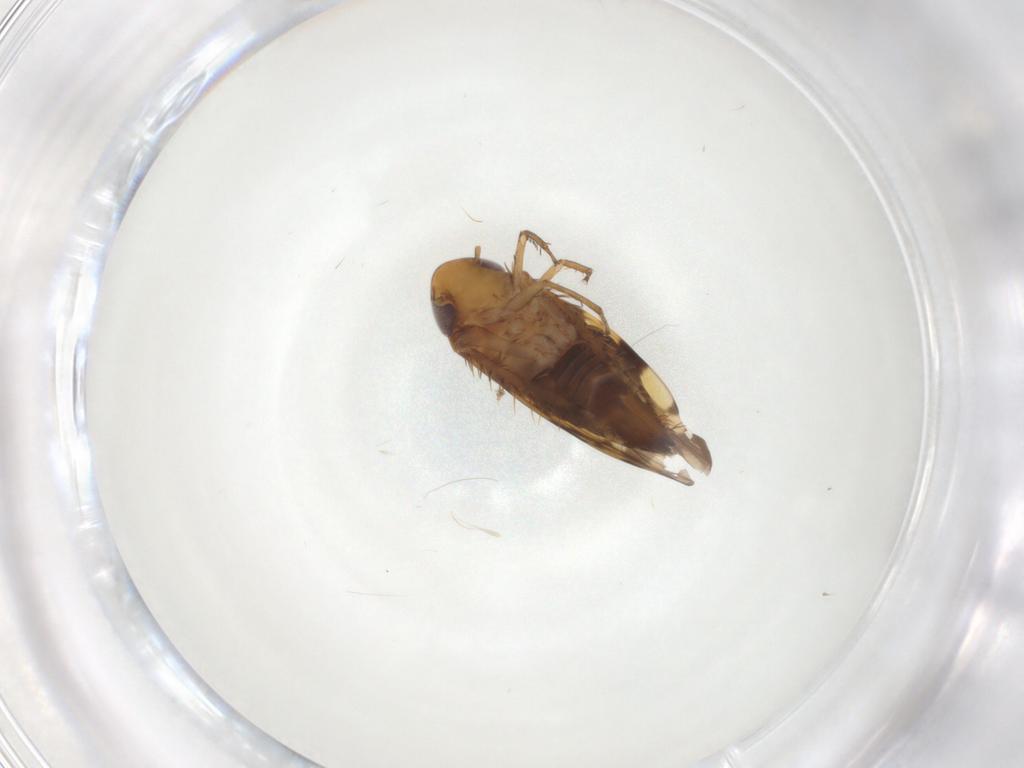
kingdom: Animalia
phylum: Arthropoda
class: Insecta
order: Hemiptera
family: Cicadellidae
